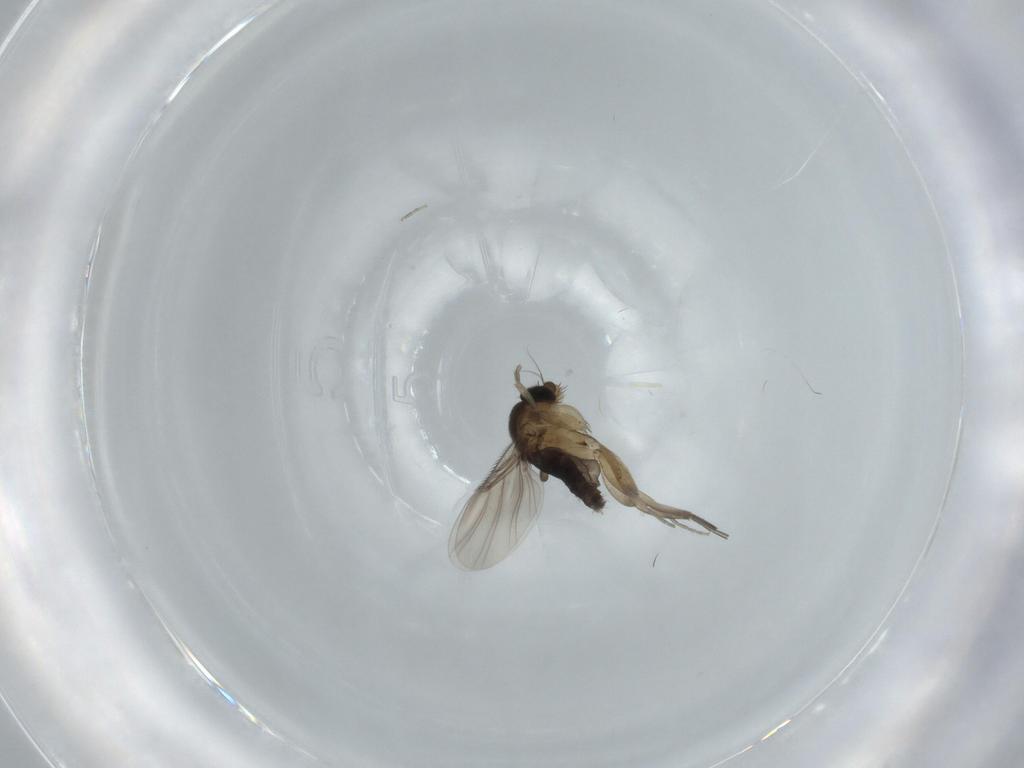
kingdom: Animalia
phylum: Arthropoda
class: Insecta
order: Diptera
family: Phoridae
